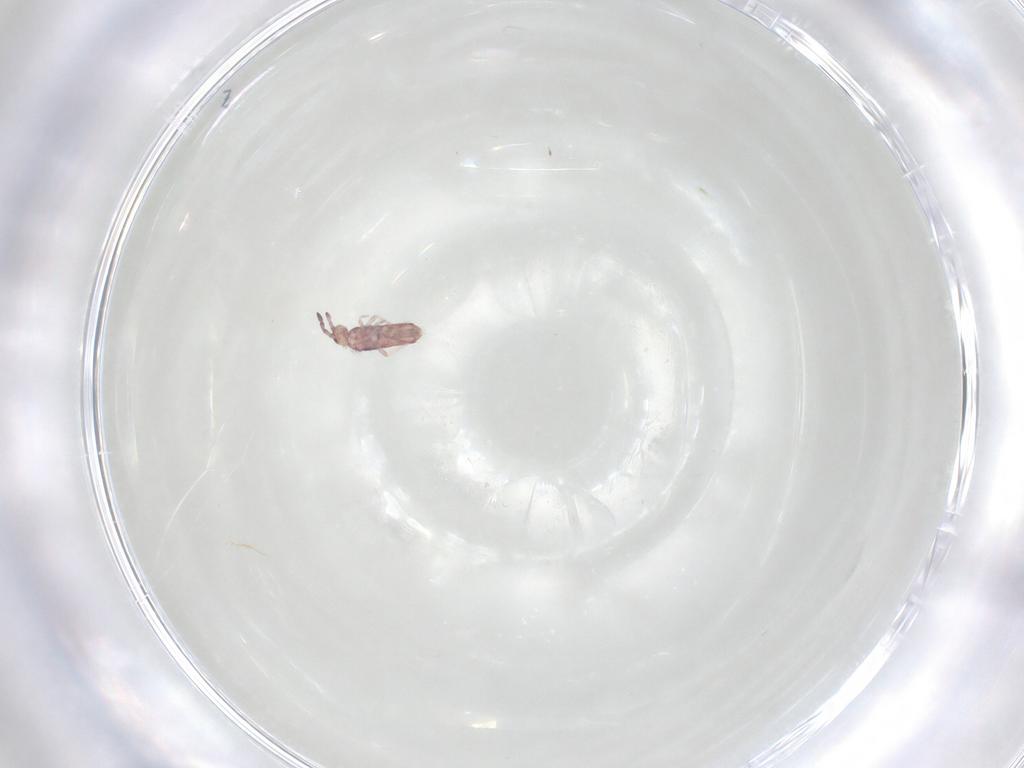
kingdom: Animalia
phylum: Arthropoda
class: Collembola
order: Entomobryomorpha
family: Entomobryidae
